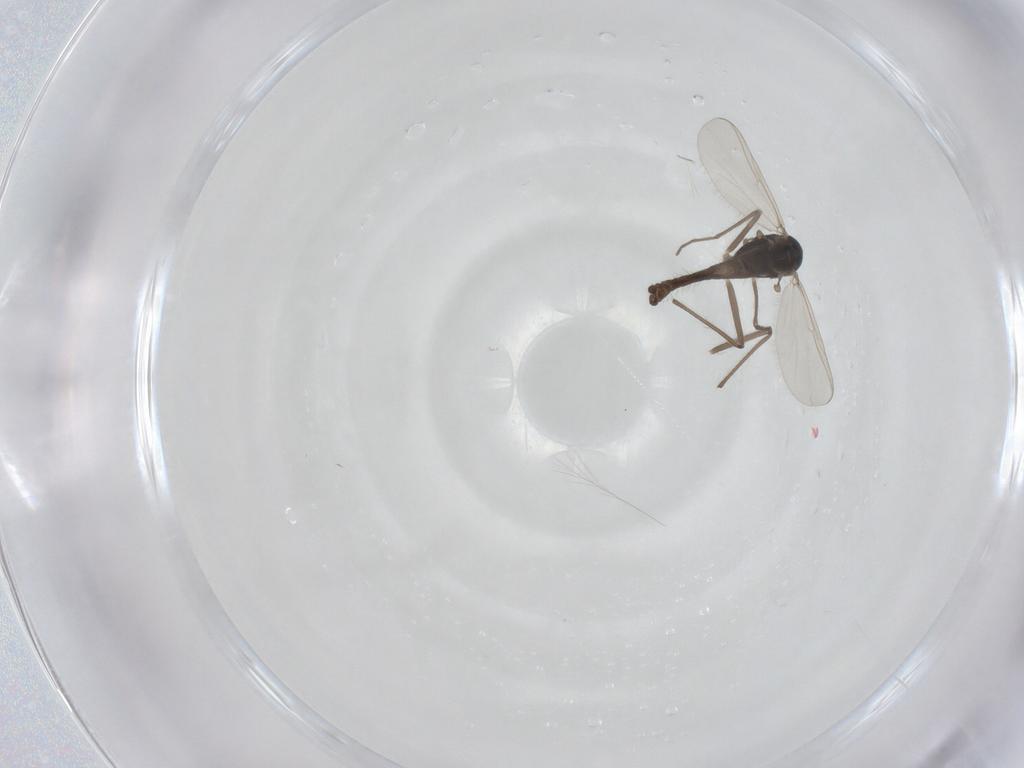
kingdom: Animalia
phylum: Arthropoda
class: Insecta
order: Diptera
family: Chironomidae
